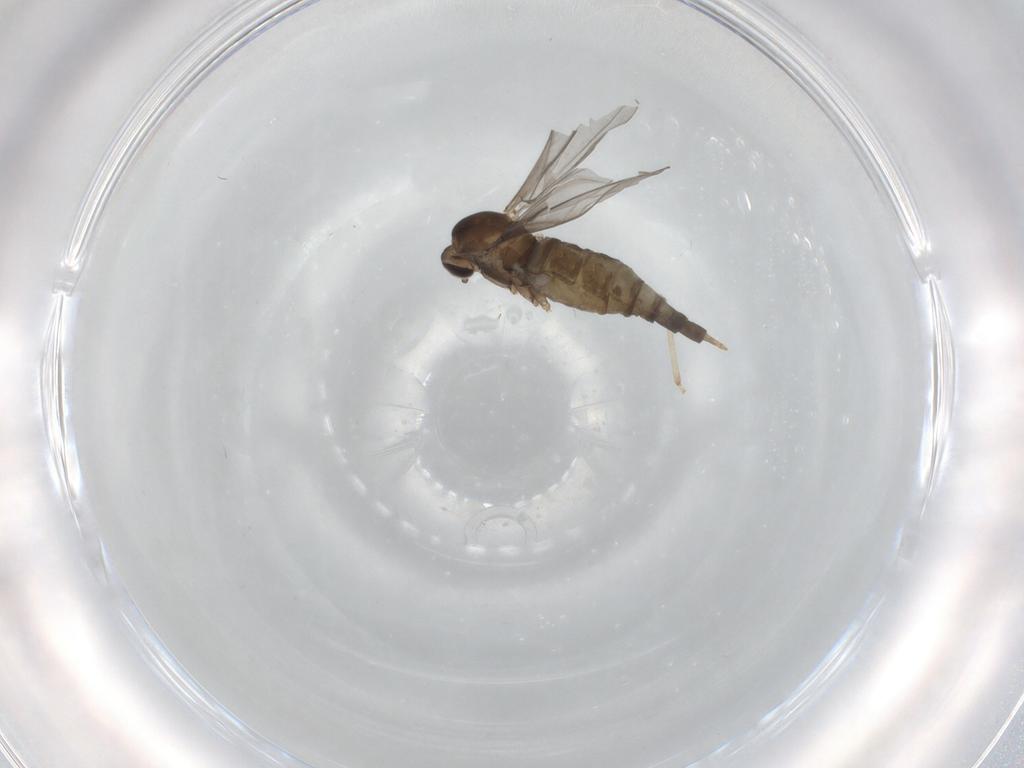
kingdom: Animalia
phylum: Arthropoda
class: Insecta
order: Diptera
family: Cecidomyiidae
